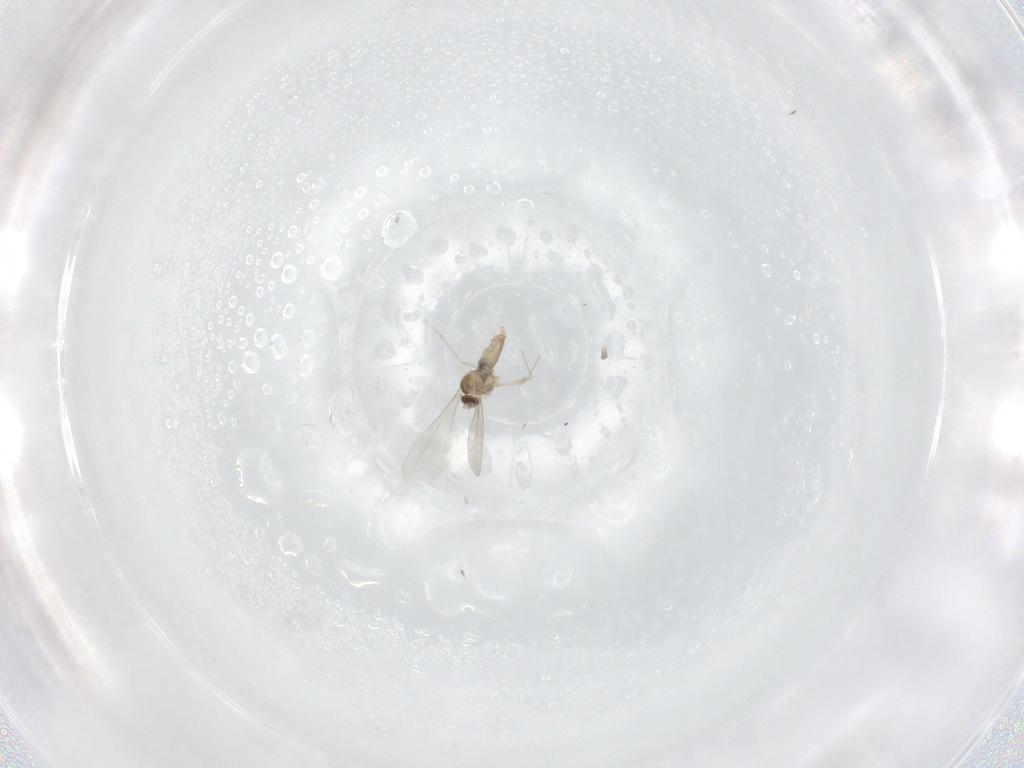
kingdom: Animalia
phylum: Arthropoda
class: Insecta
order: Diptera
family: Cecidomyiidae
